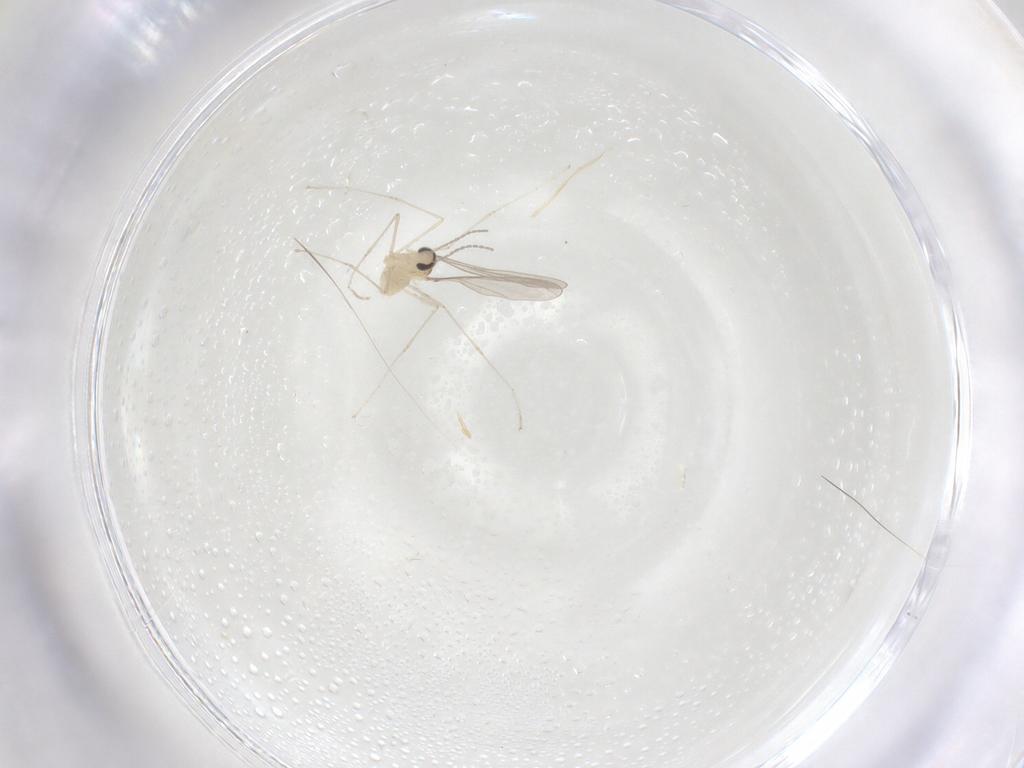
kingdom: Animalia
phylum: Arthropoda
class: Insecta
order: Diptera
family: Cecidomyiidae
